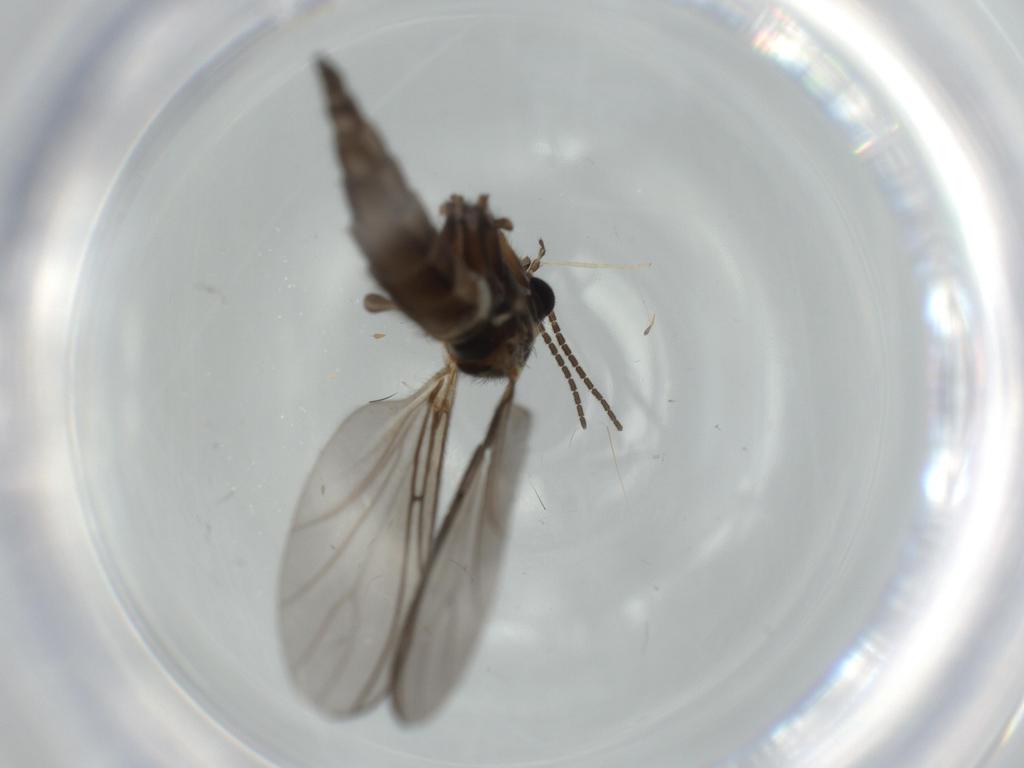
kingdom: Animalia
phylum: Arthropoda
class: Insecta
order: Diptera
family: Sciaridae
